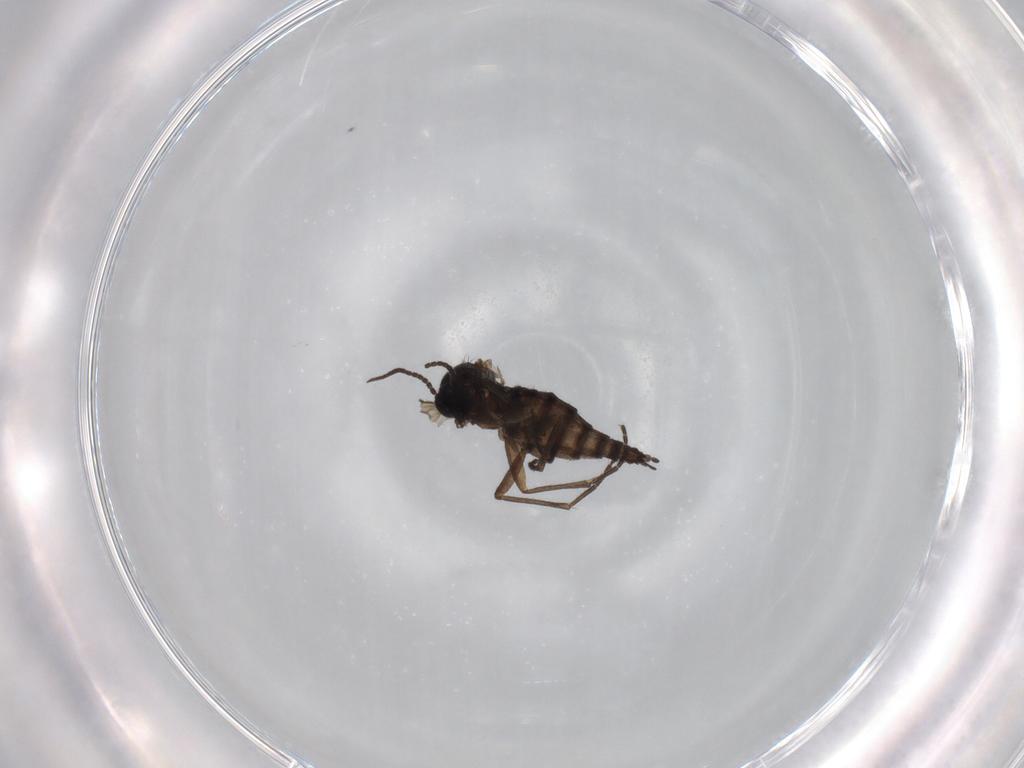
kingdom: Animalia
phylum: Arthropoda
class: Insecta
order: Diptera
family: Sciaridae
